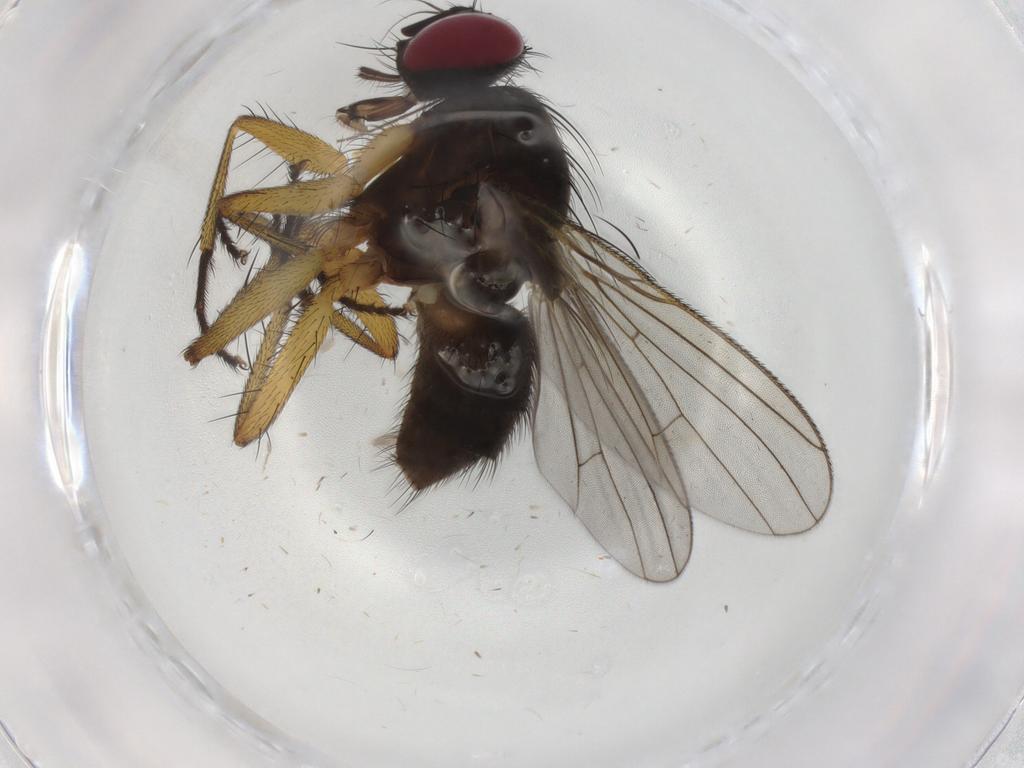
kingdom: Animalia
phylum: Arthropoda
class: Insecta
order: Diptera
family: Muscidae
